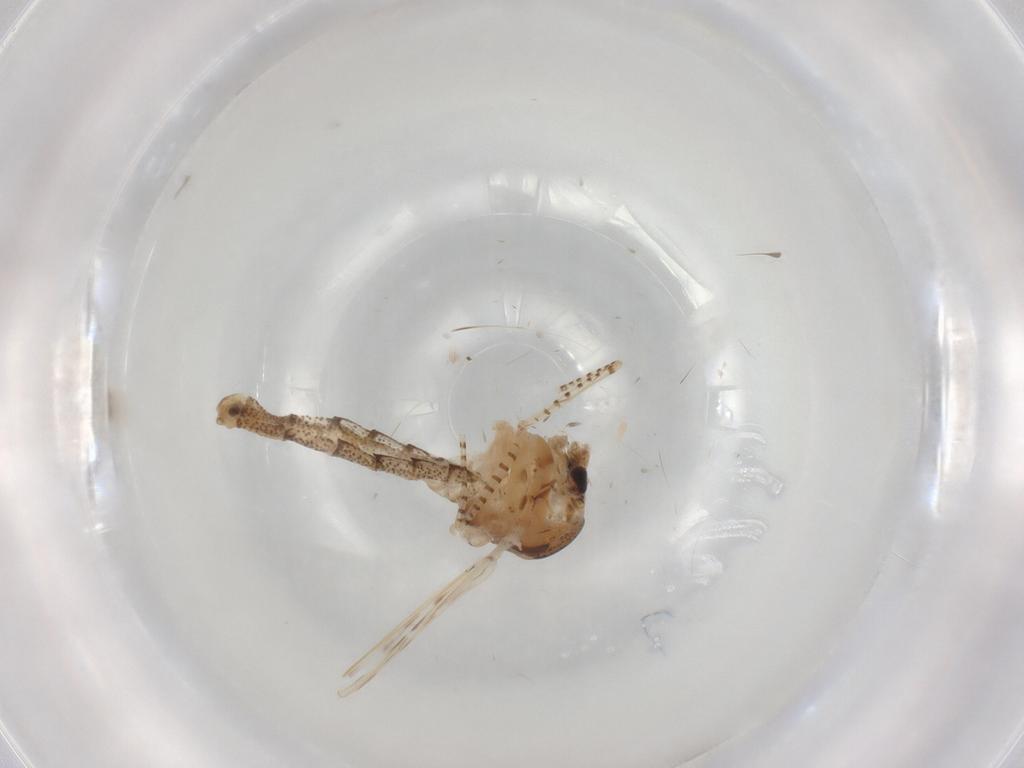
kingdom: Animalia
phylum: Arthropoda
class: Insecta
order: Diptera
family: Chaoboridae
